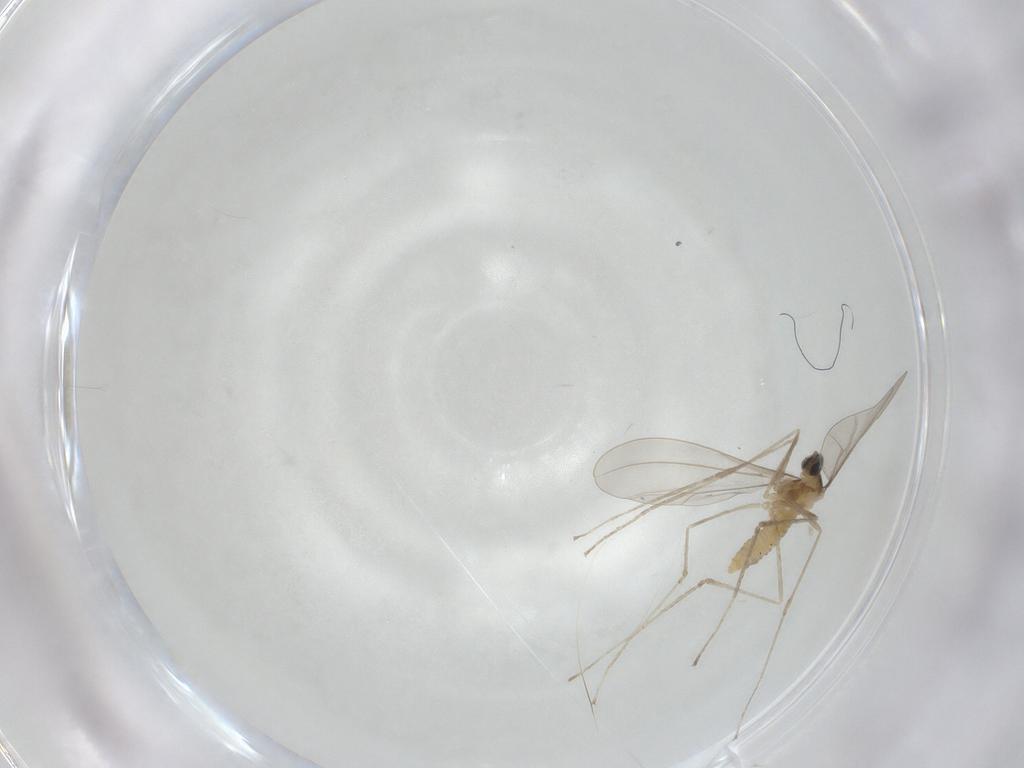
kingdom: Animalia
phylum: Arthropoda
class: Insecta
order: Diptera
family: Cecidomyiidae
